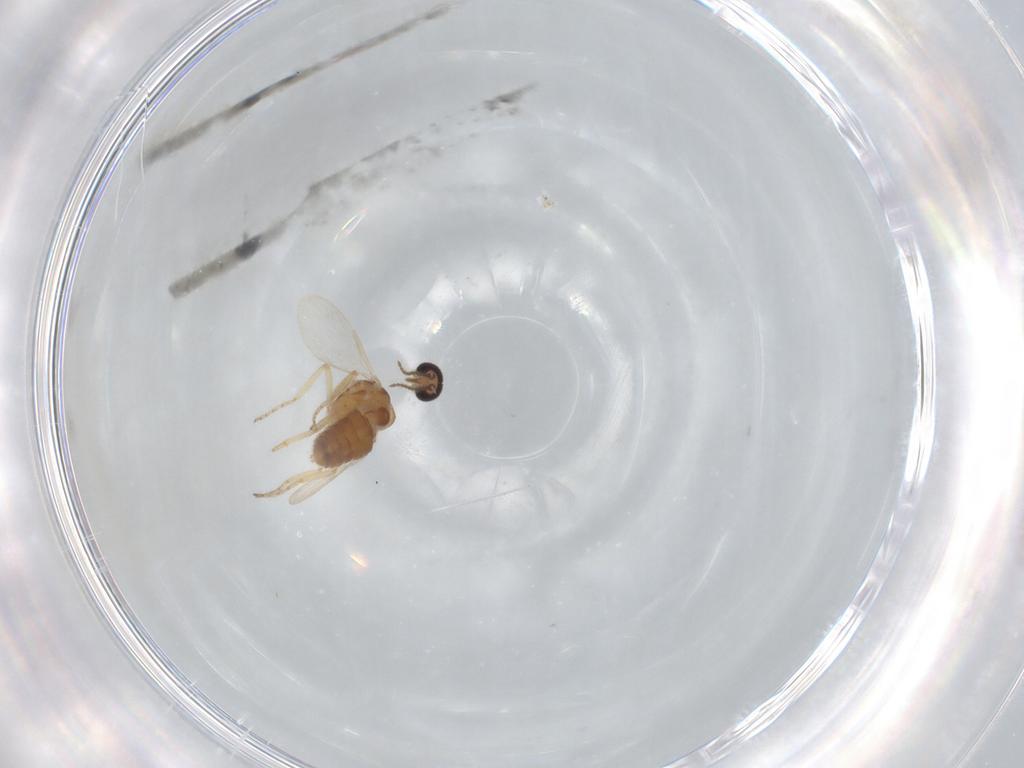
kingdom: Animalia
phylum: Arthropoda
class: Insecta
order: Diptera
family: Ceratopogonidae
